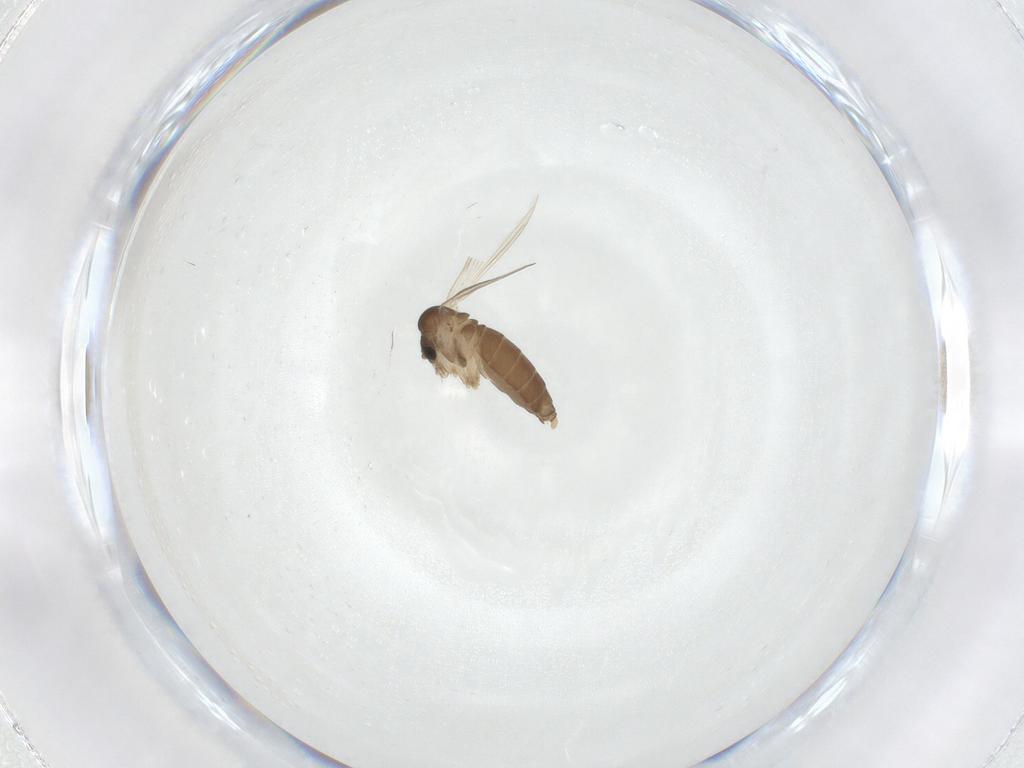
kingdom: Animalia
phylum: Arthropoda
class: Insecta
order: Diptera
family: Psychodidae
